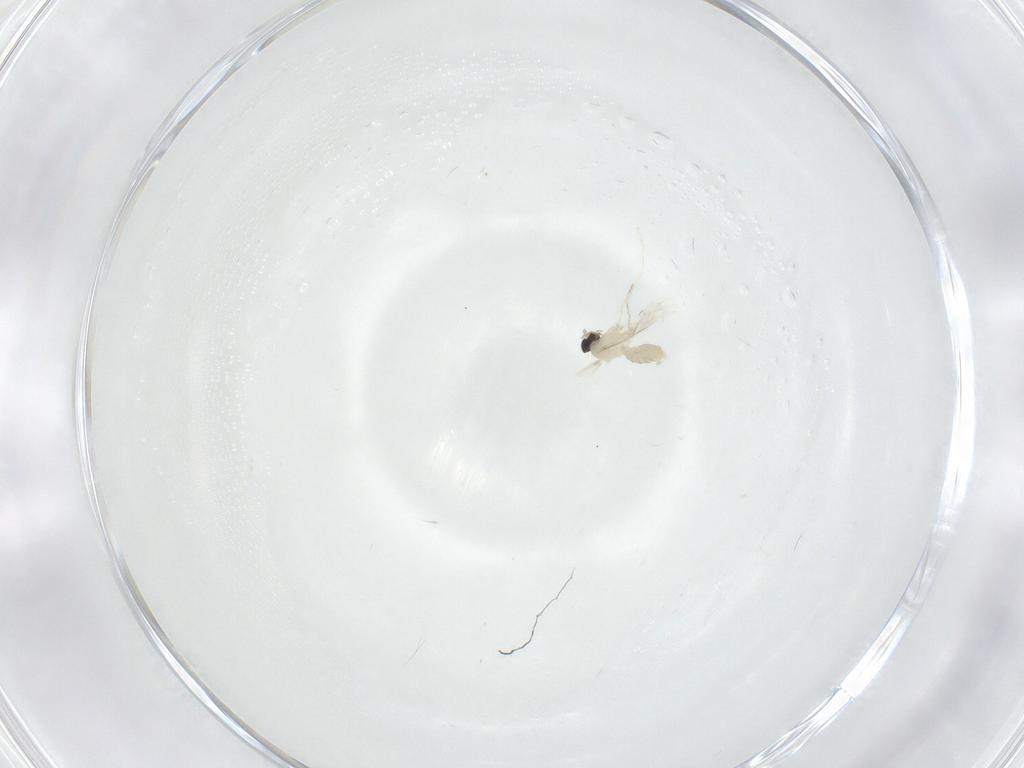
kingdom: Animalia
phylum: Arthropoda
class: Insecta
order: Diptera
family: Cecidomyiidae
